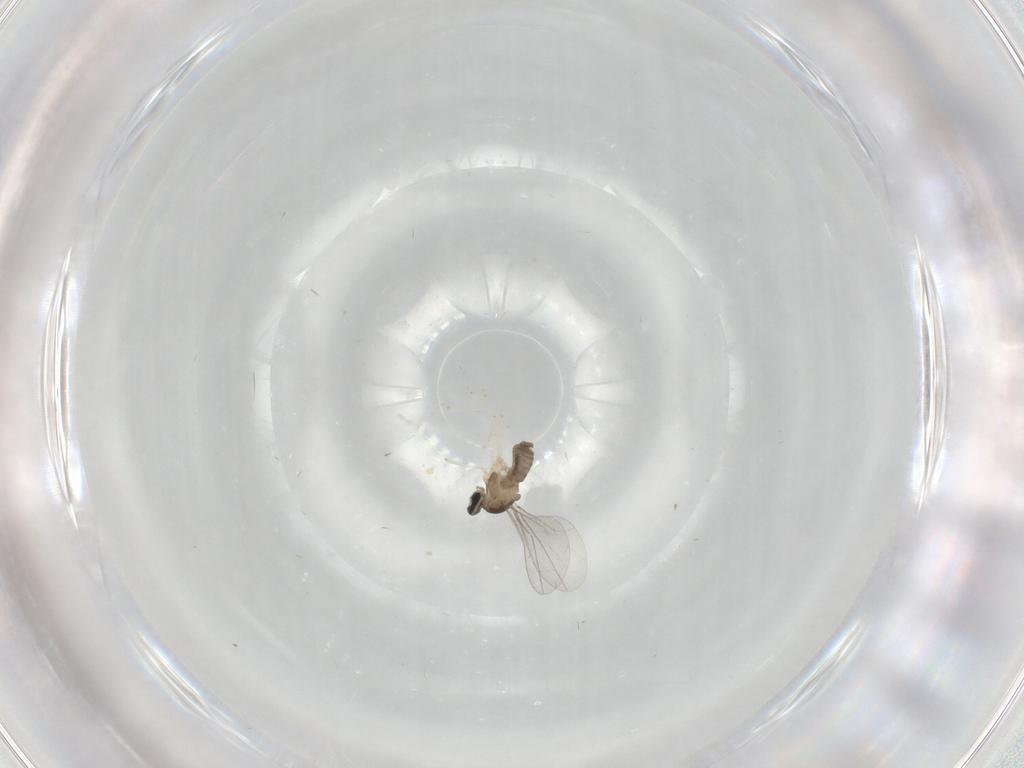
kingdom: Animalia
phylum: Arthropoda
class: Insecta
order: Diptera
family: Cecidomyiidae
